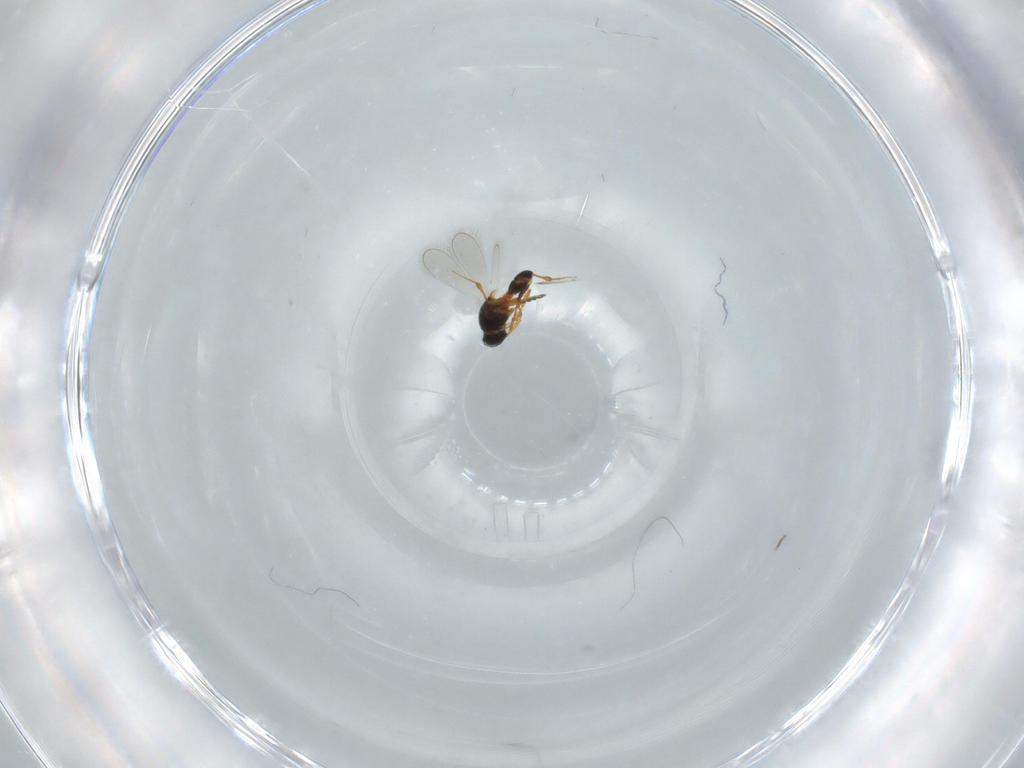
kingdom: Animalia
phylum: Arthropoda
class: Insecta
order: Hymenoptera
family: Platygastridae
